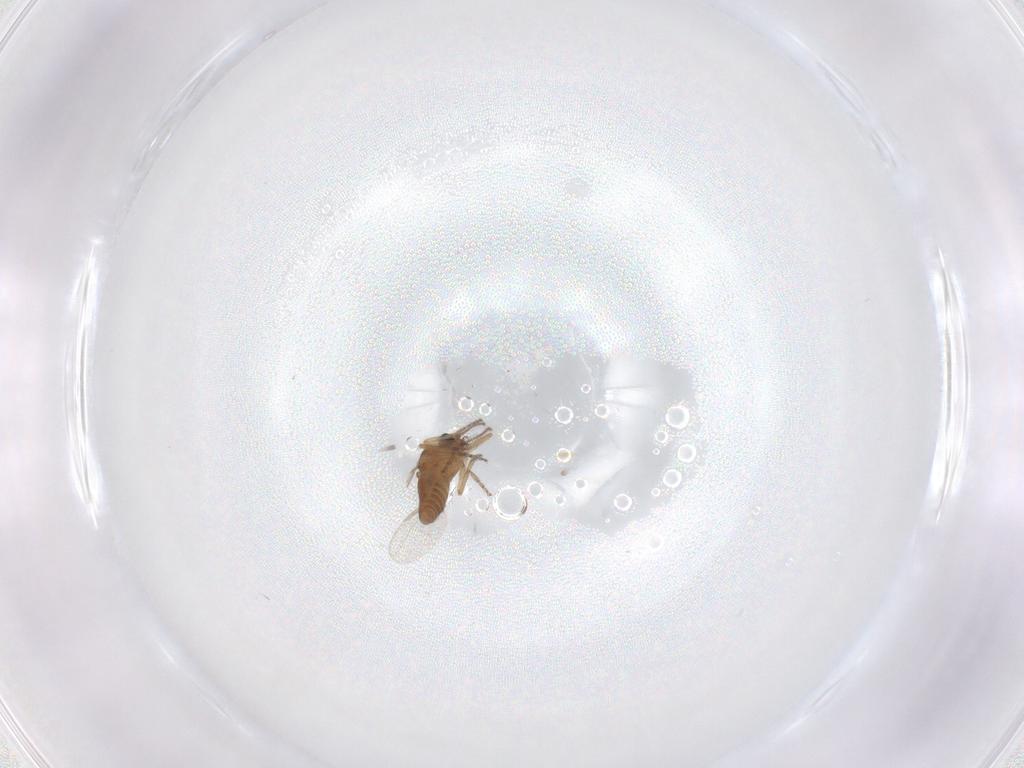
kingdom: Animalia
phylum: Arthropoda
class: Insecta
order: Diptera
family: Ceratopogonidae
